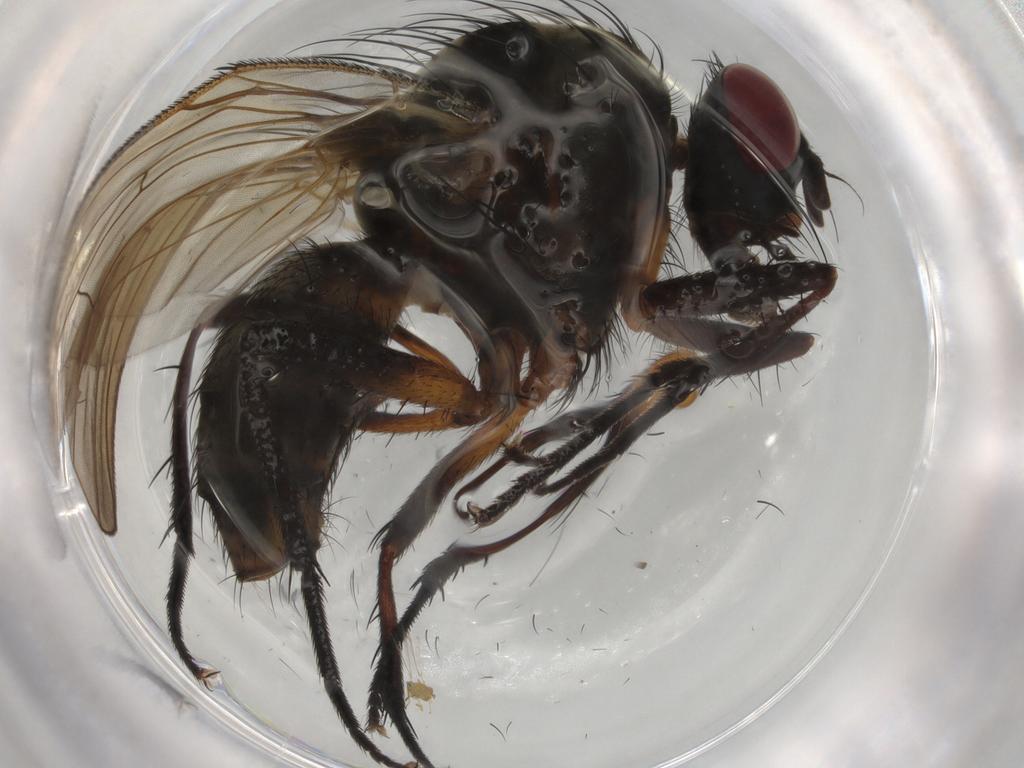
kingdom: Animalia
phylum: Arthropoda
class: Insecta
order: Diptera
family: Anthomyiidae
